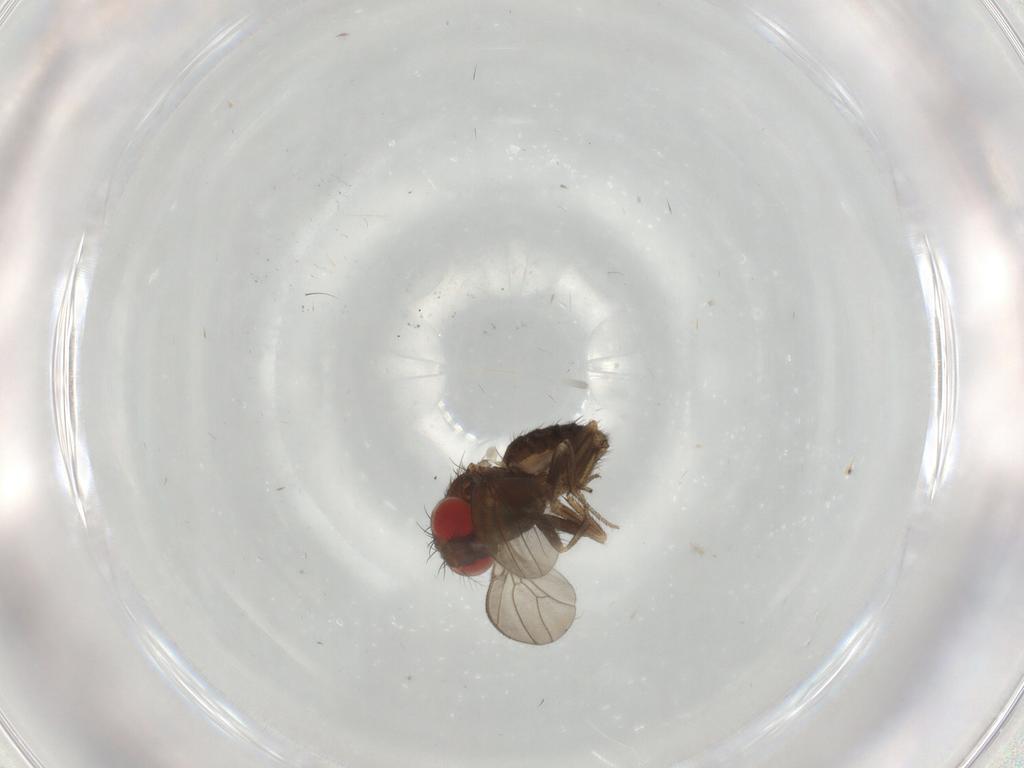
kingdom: Animalia
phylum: Arthropoda
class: Insecta
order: Diptera
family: Drosophilidae
